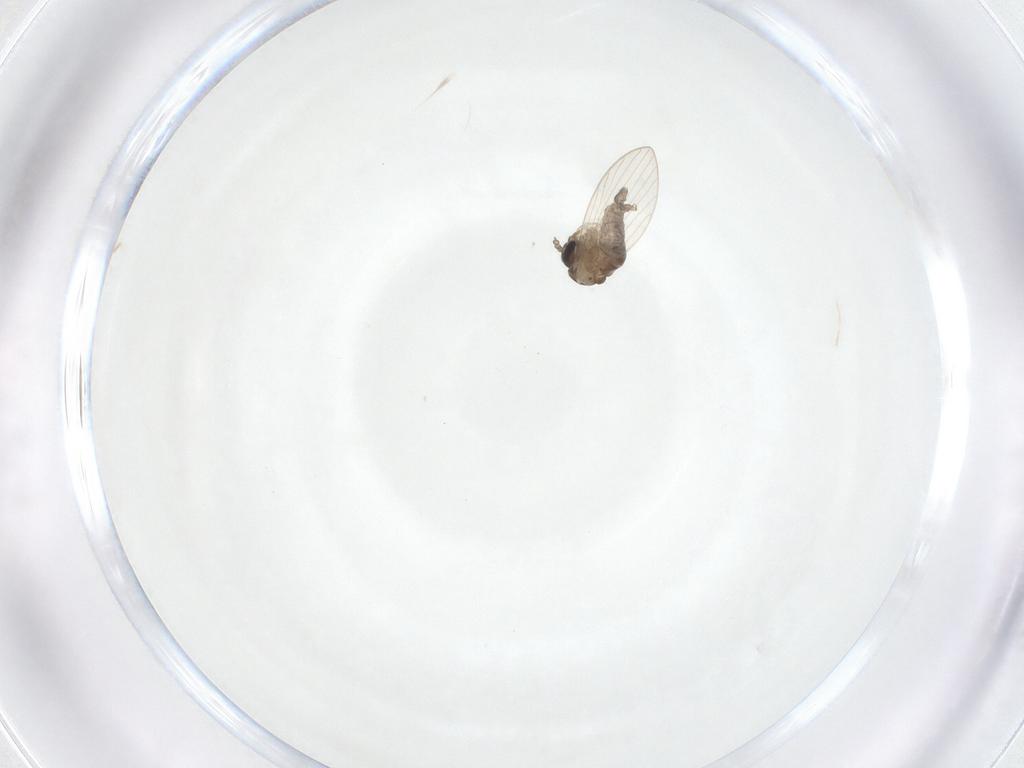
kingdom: Animalia
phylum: Arthropoda
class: Insecta
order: Diptera
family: Psychodidae
